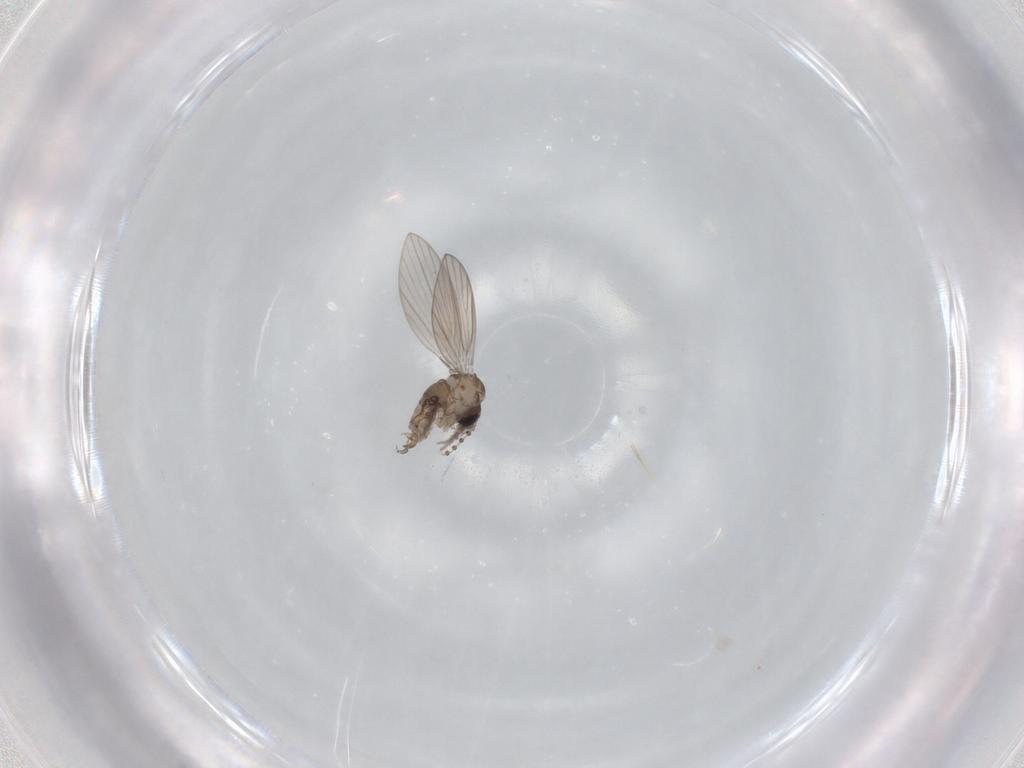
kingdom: Animalia
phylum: Arthropoda
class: Insecta
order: Diptera
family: Psychodidae
